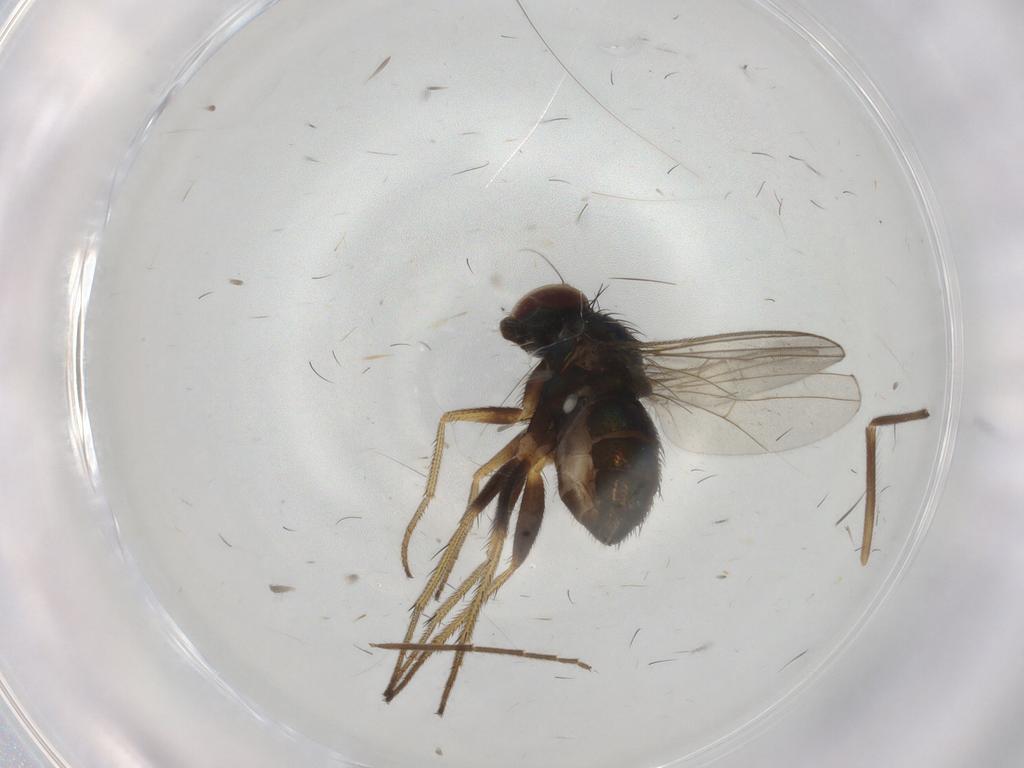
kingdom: Animalia
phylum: Arthropoda
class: Insecta
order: Diptera
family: Chironomidae
